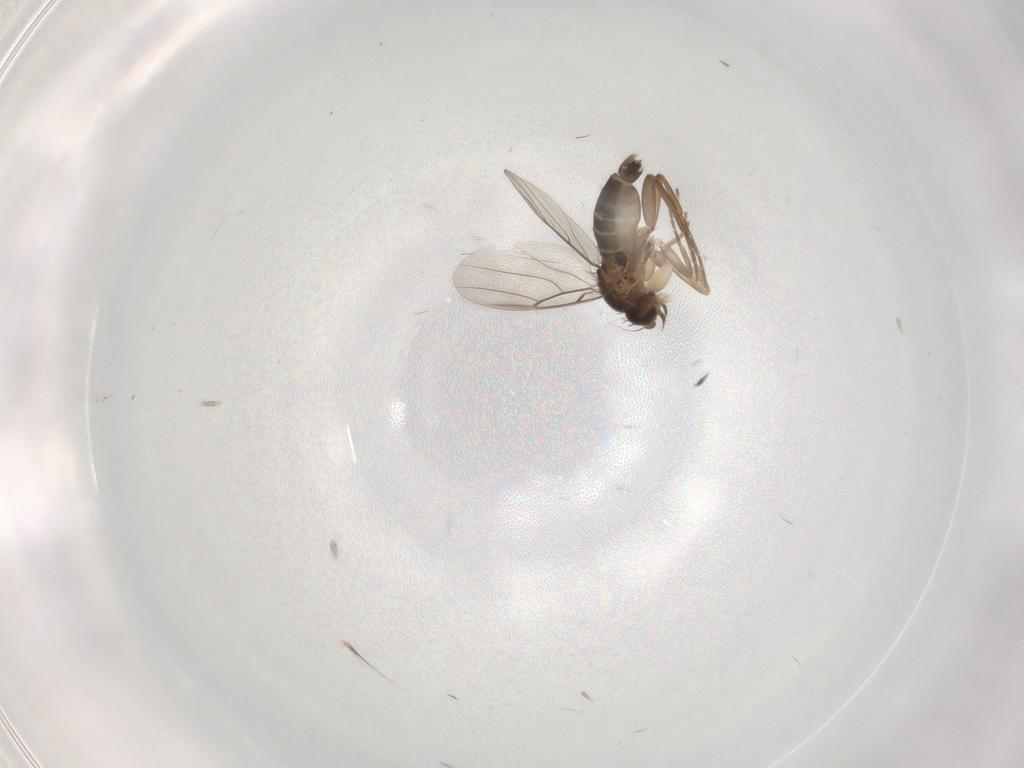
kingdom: Animalia
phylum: Arthropoda
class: Insecta
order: Diptera
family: Phoridae
